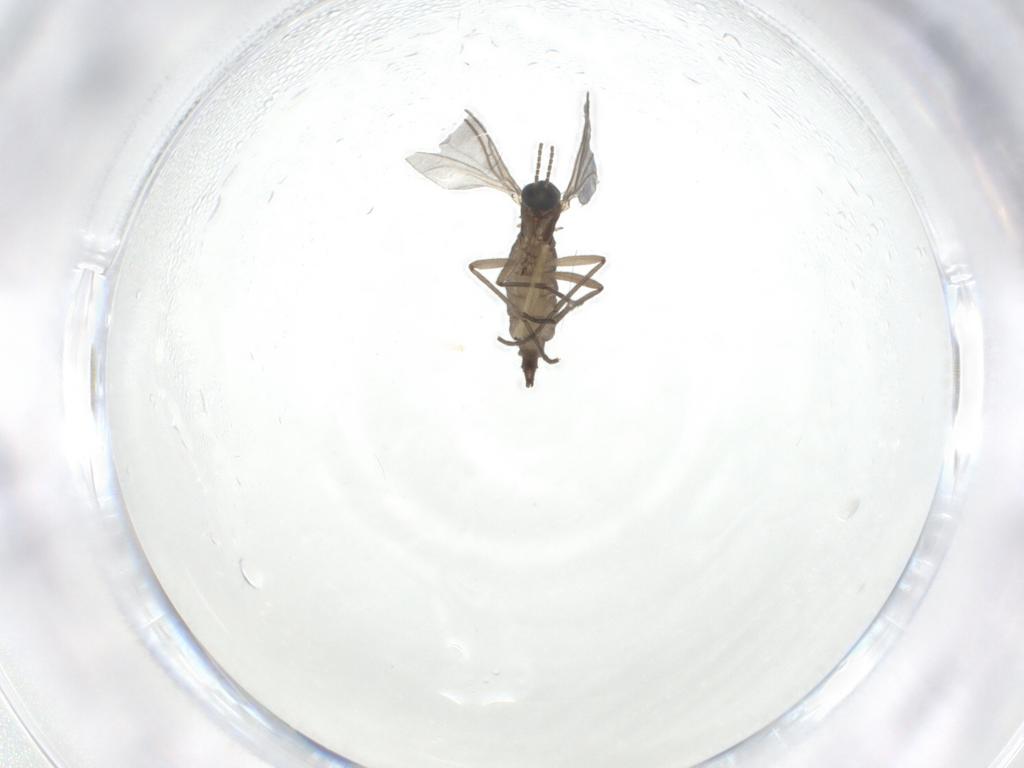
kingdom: Animalia
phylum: Arthropoda
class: Insecta
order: Diptera
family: Chironomidae
